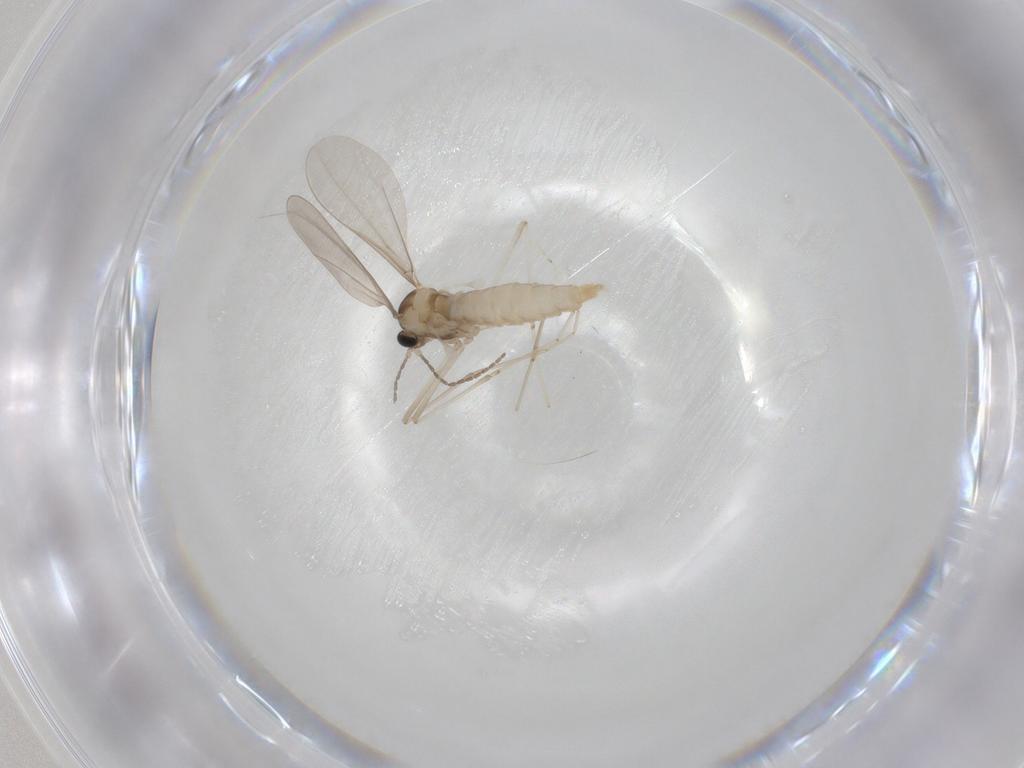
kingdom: Animalia
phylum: Arthropoda
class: Insecta
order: Diptera
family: Cecidomyiidae
